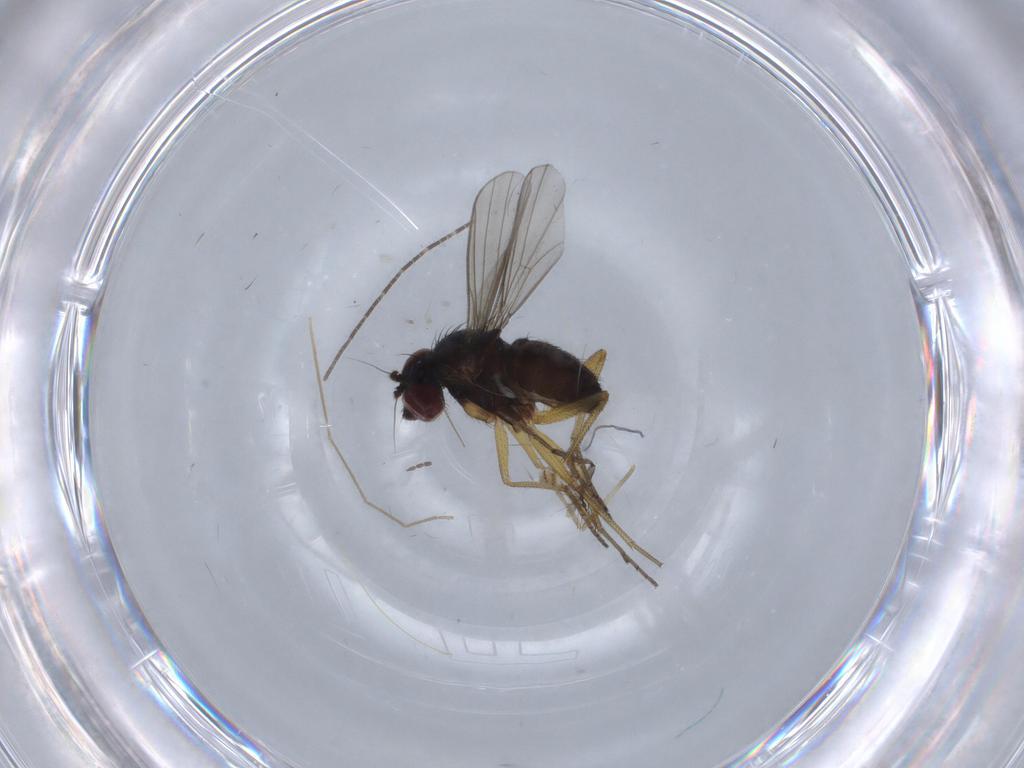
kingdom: Animalia
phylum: Arthropoda
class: Insecta
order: Diptera
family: Dolichopodidae
